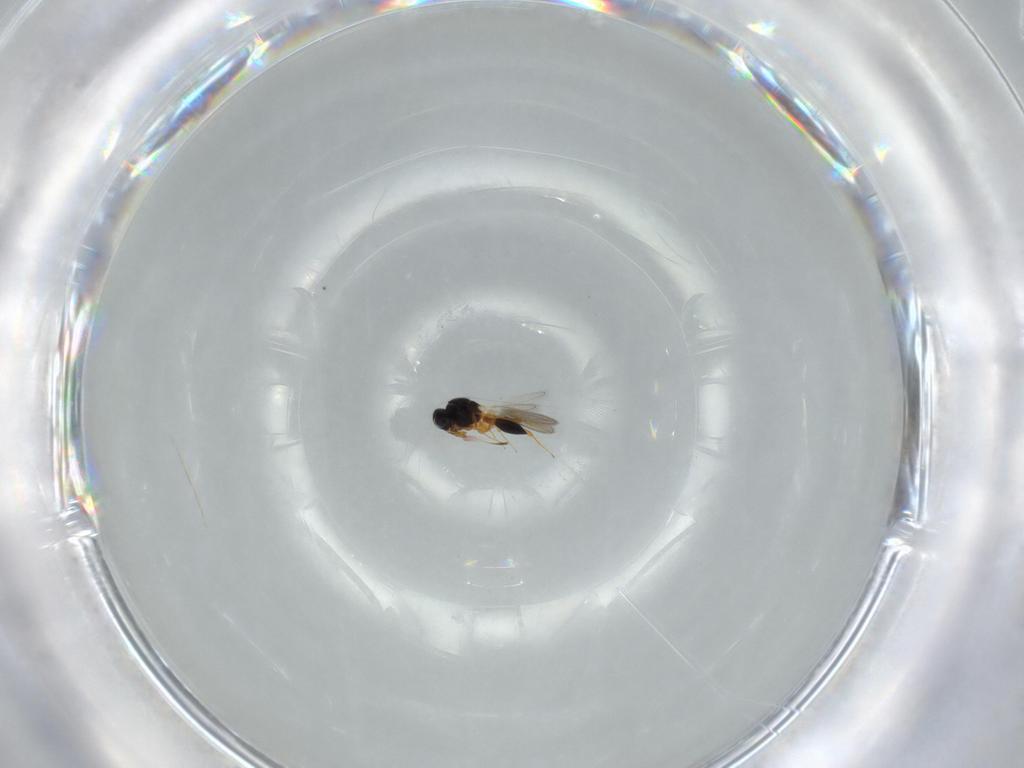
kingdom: Animalia
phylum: Arthropoda
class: Insecta
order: Hymenoptera
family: Platygastridae
